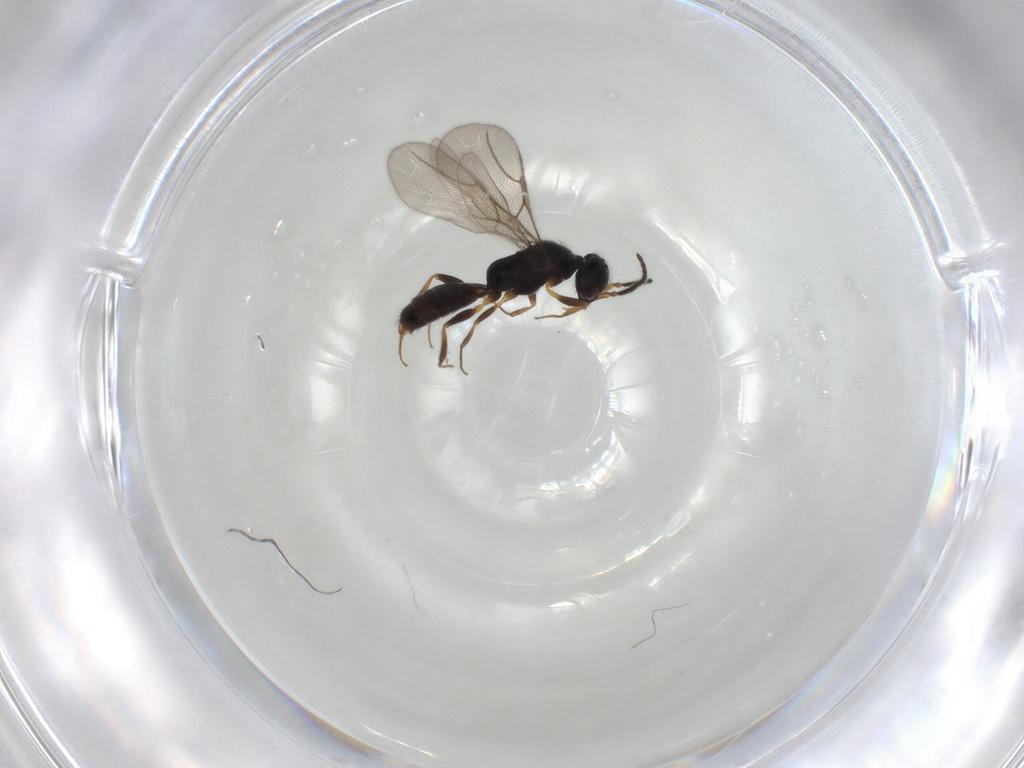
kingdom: Animalia
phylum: Arthropoda
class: Insecta
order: Hymenoptera
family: Bethylidae
